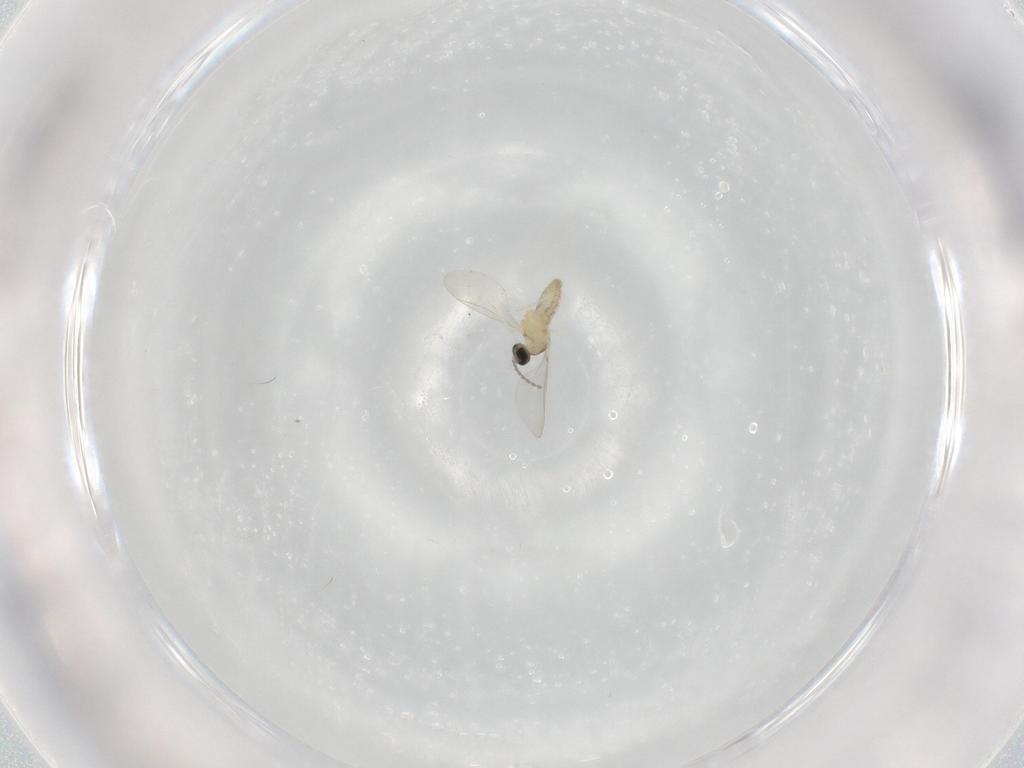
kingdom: Animalia
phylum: Arthropoda
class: Insecta
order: Diptera
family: Cecidomyiidae
